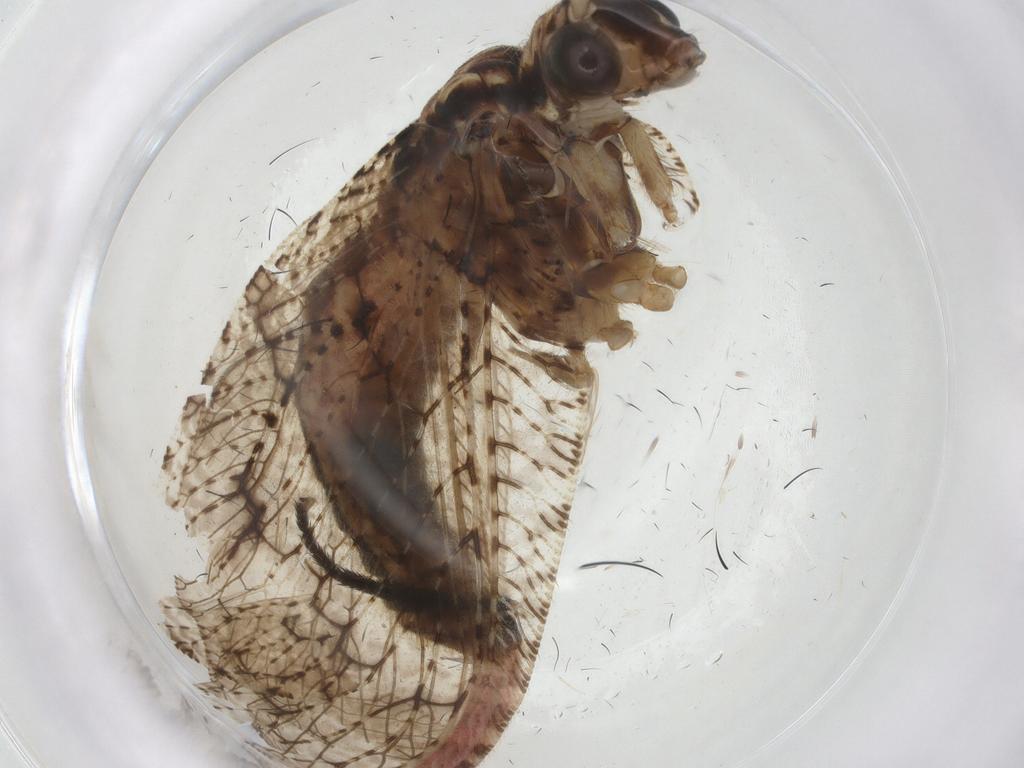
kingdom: Animalia
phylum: Arthropoda
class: Insecta
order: Neuroptera
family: Hemerobiidae
